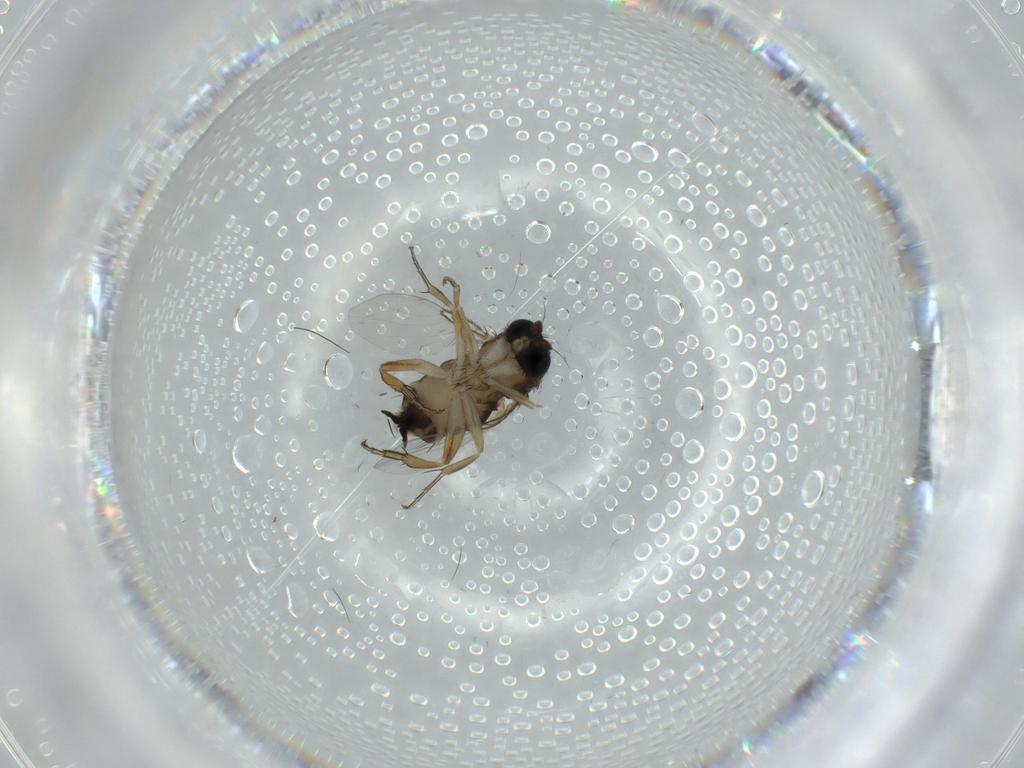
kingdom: Animalia
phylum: Arthropoda
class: Insecta
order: Diptera
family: Phoridae
